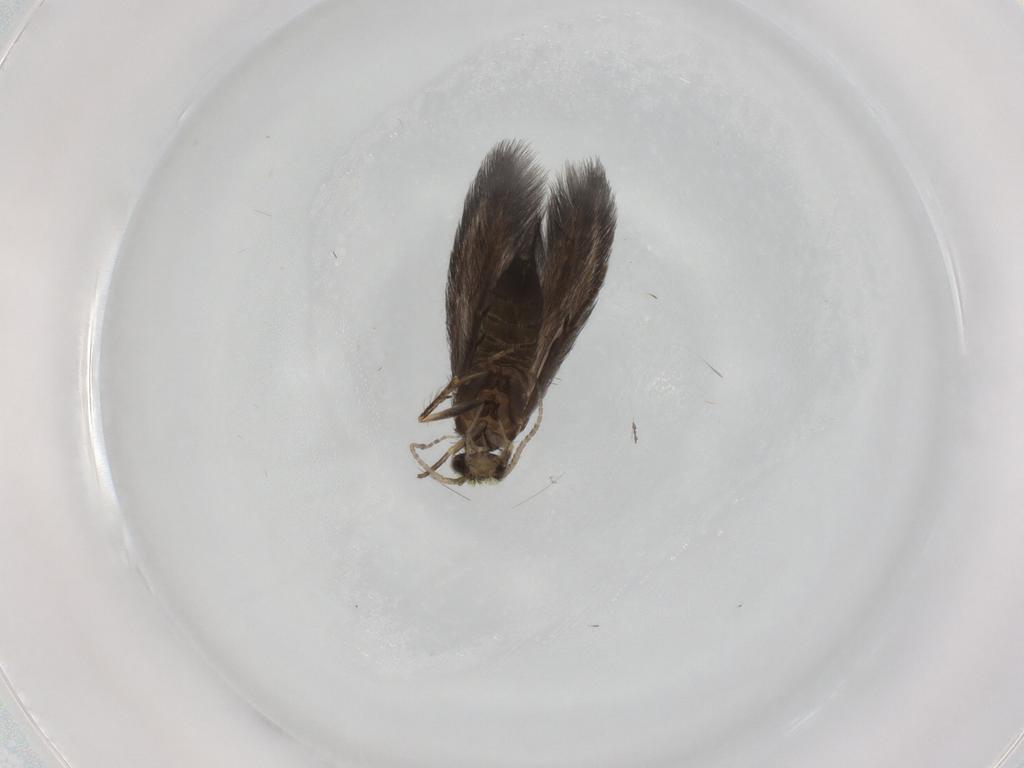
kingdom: Animalia
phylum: Arthropoda
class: Insecta
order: Trichoptera
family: Hydroptilidae
